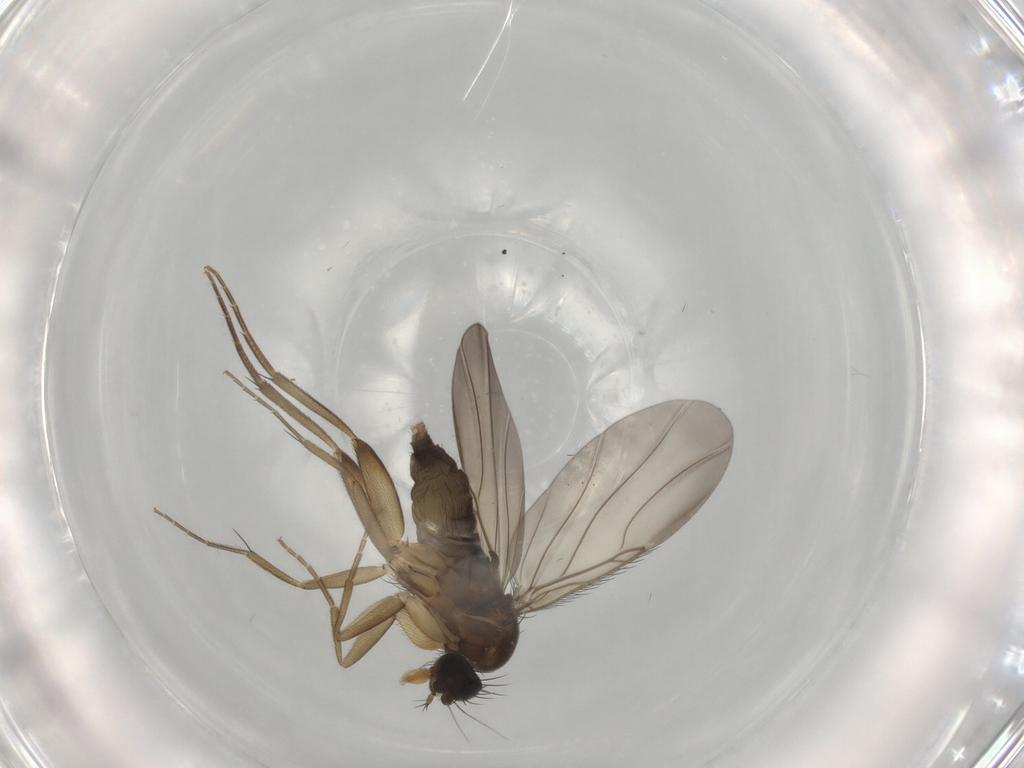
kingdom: Animalia
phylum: Arthropoda
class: Insecta
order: Diptera
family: Phoridae
